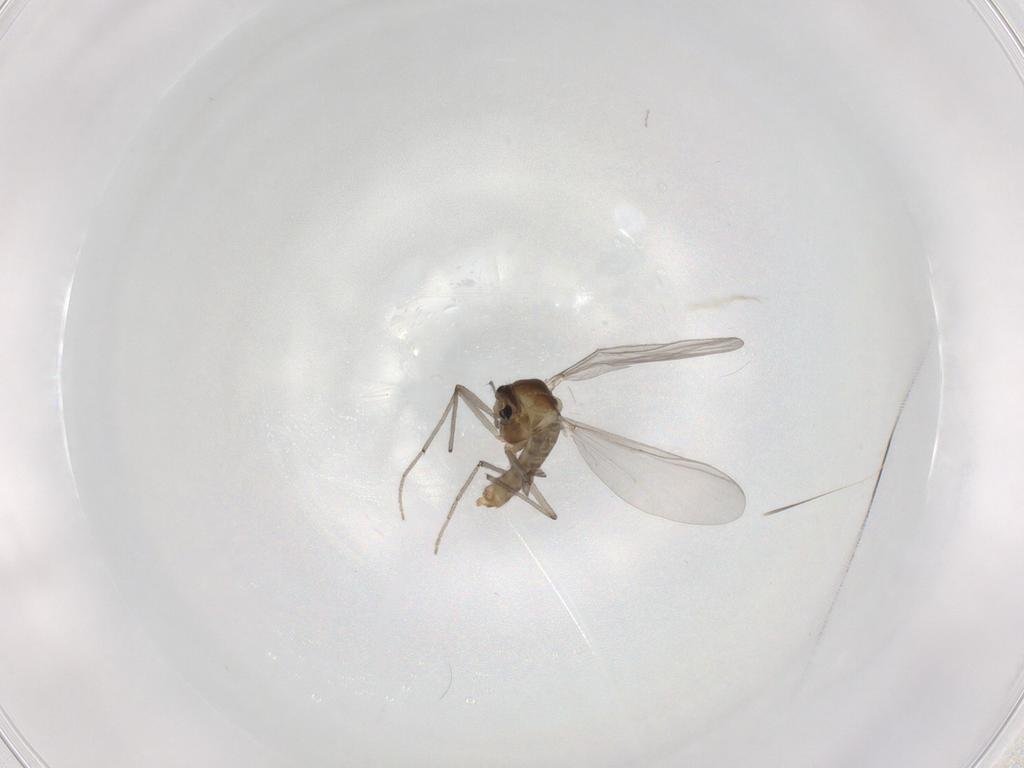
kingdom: Animalia
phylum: Arthropoda
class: Insecta
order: Diptera
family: Chironomidae
